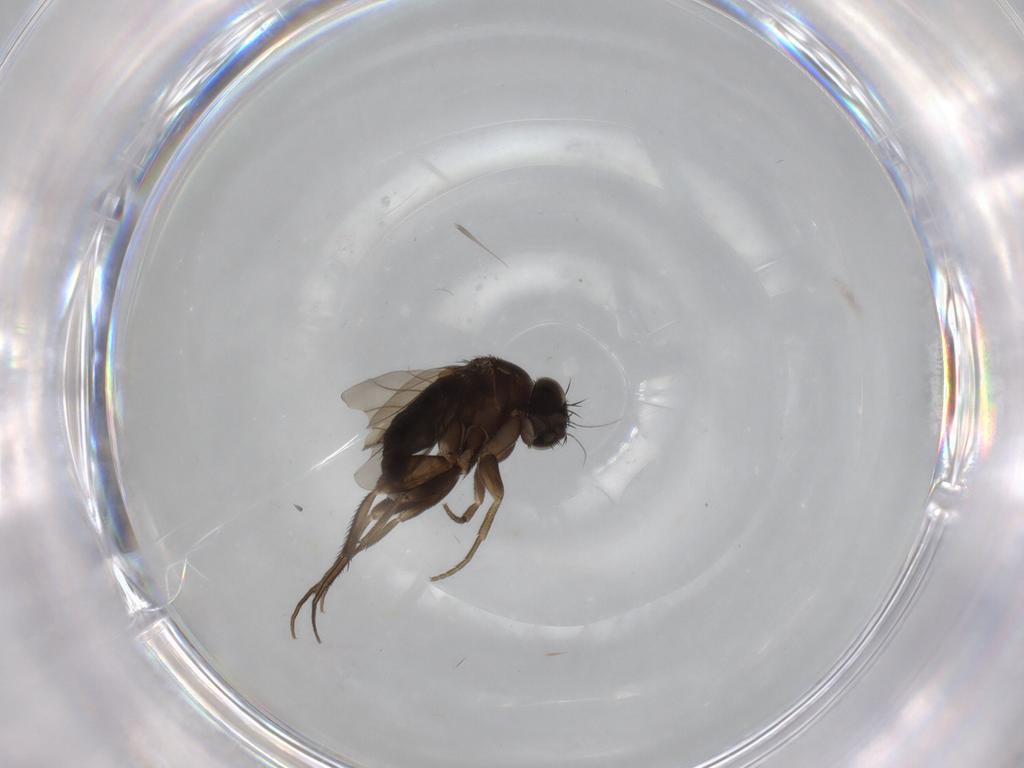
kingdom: Animalia
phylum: Arthropoda
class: Insecta
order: Diptera
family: Phoridae
